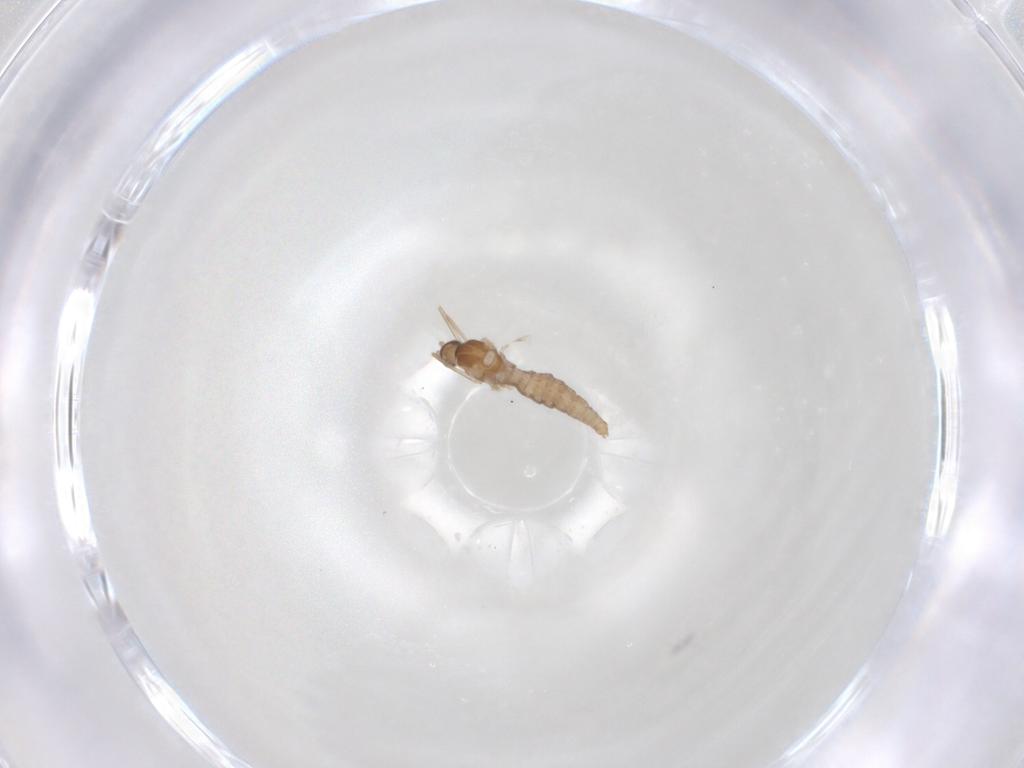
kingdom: Animalia
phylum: Arthropoda
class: Insecta
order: Diptera
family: Cecidomyiidae
